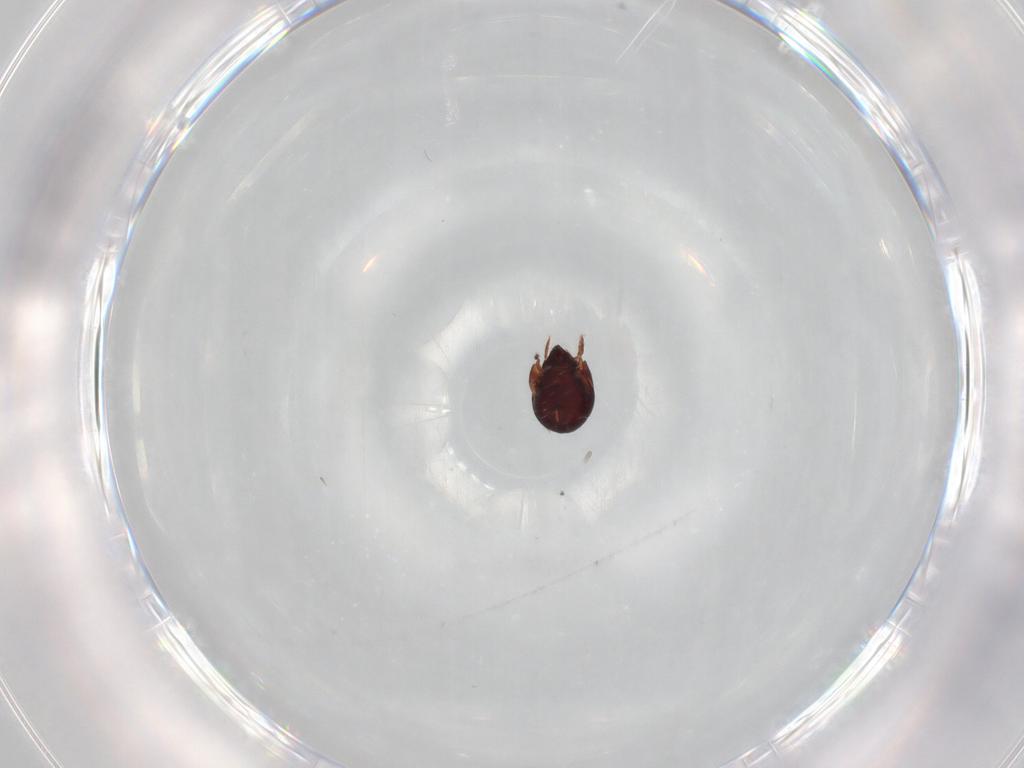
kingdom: Animalia
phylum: Arthropoda
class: Arachnida
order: Sarcoptiformes
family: Humerobatidae
